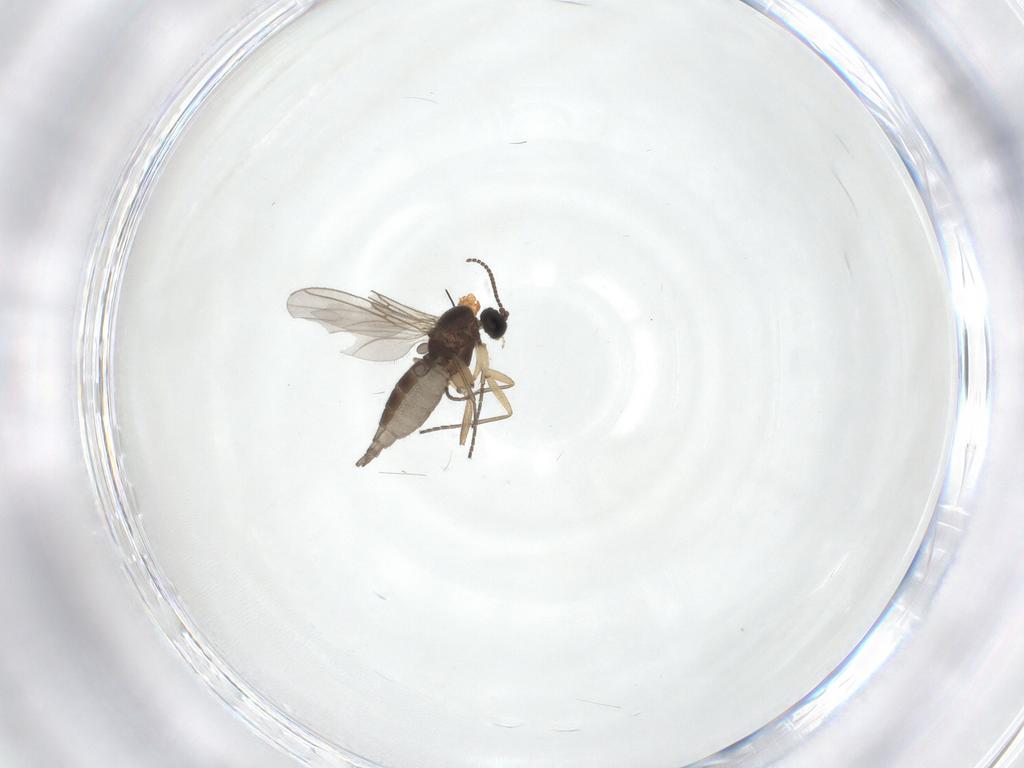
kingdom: Animalia
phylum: Arthropoda
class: Insecta
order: Diptera
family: Sciaridae
